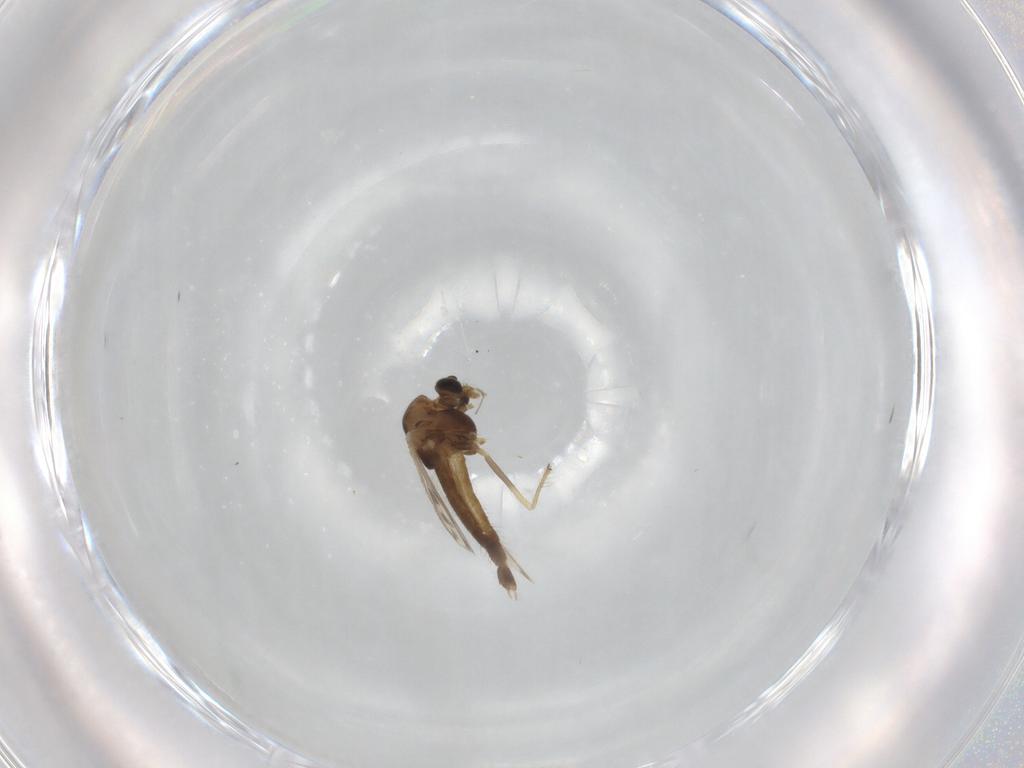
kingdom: Animalia
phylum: Arthropoda
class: Insecta
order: Diptera
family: Chironomidae
